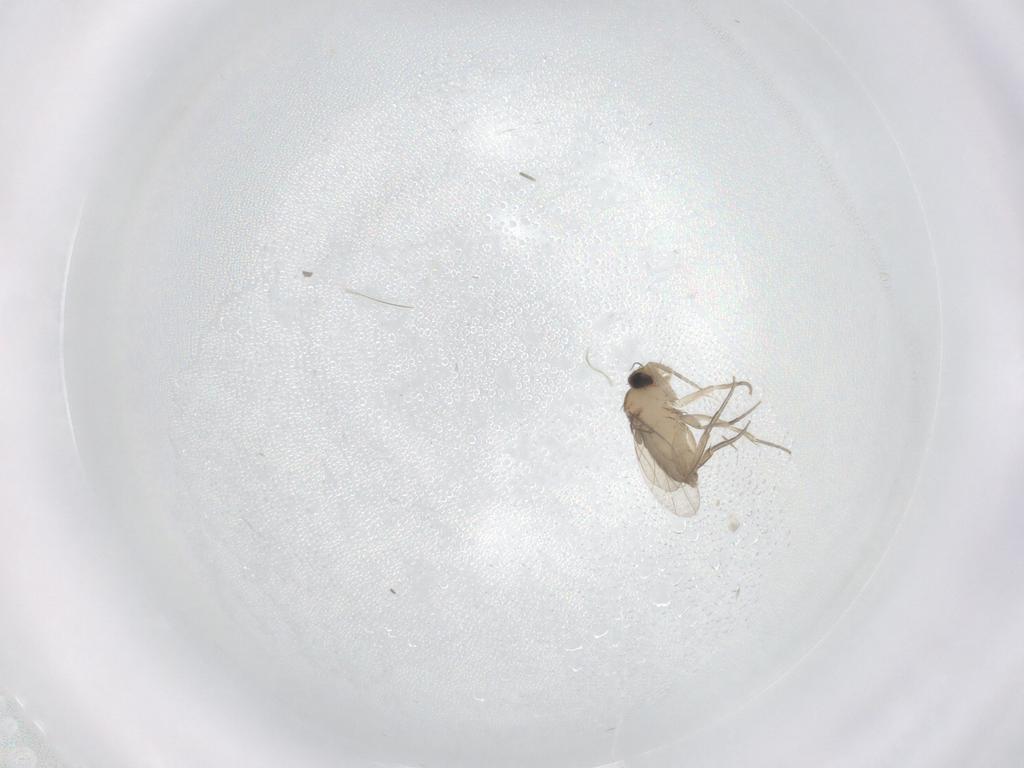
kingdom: Animalia
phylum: Arthropoda
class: Insecta
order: Diptera
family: Phoridae
